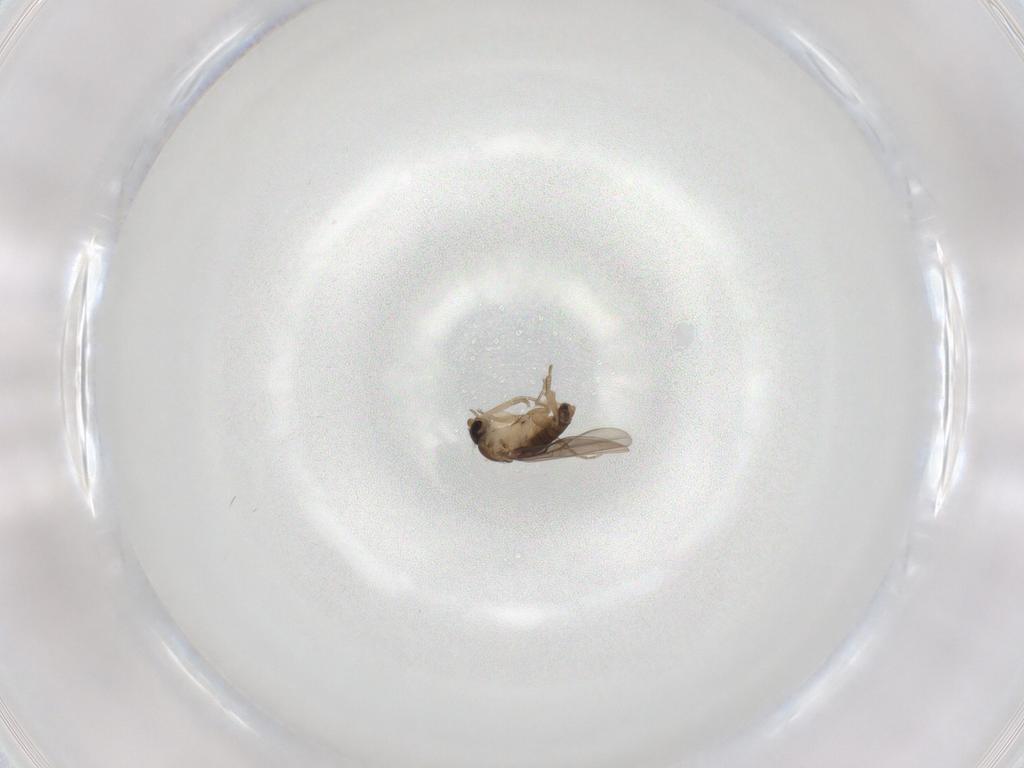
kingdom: Animalia
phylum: Arthropoda
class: Insecta
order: Diptera
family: Phoridae
